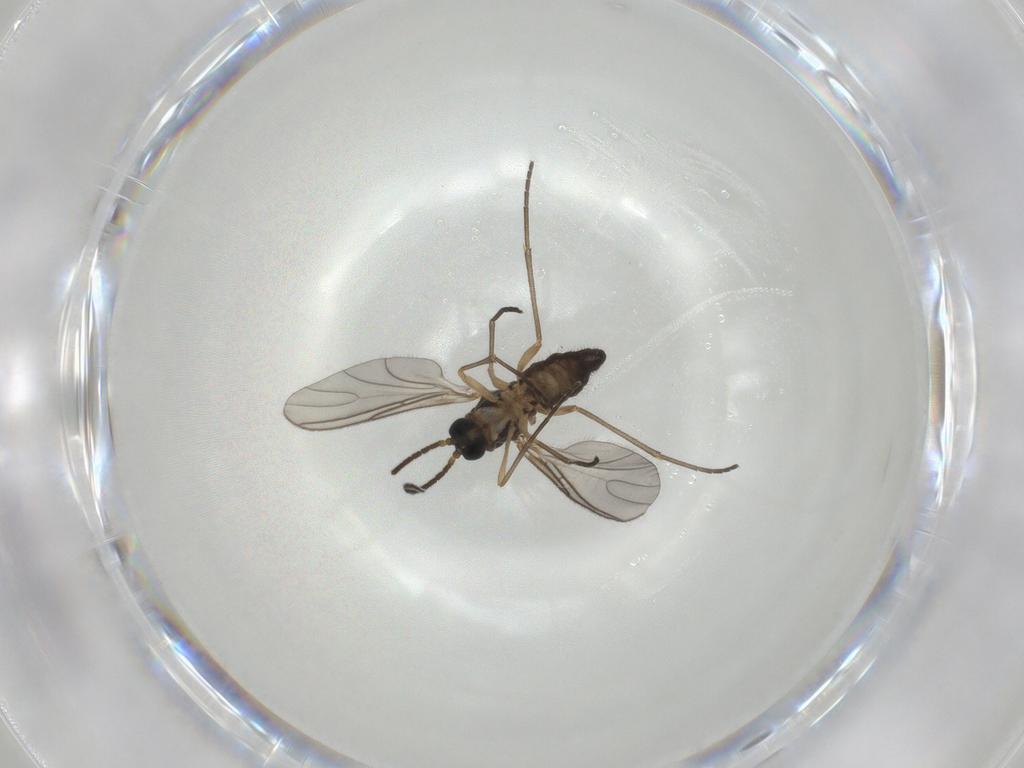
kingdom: Animalia
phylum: Arthropoda
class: Insecta
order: Diptera
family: Sciaridae
